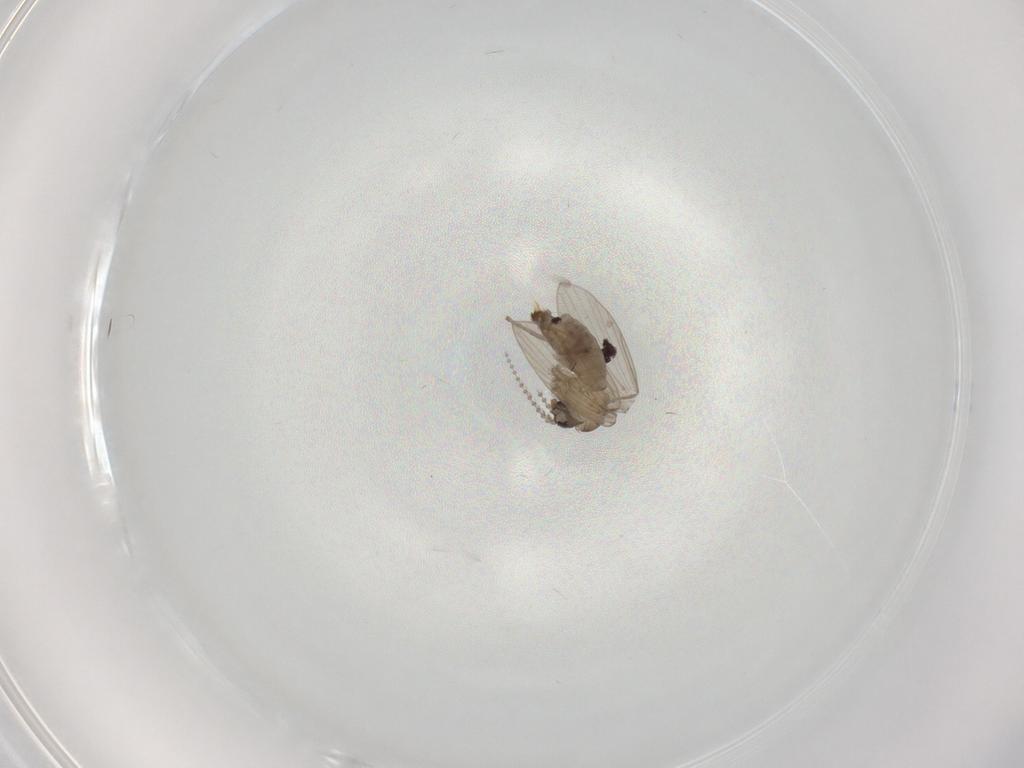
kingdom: Animalia
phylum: Arthropoda
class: Insecta
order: Diptera
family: Psychodidae
